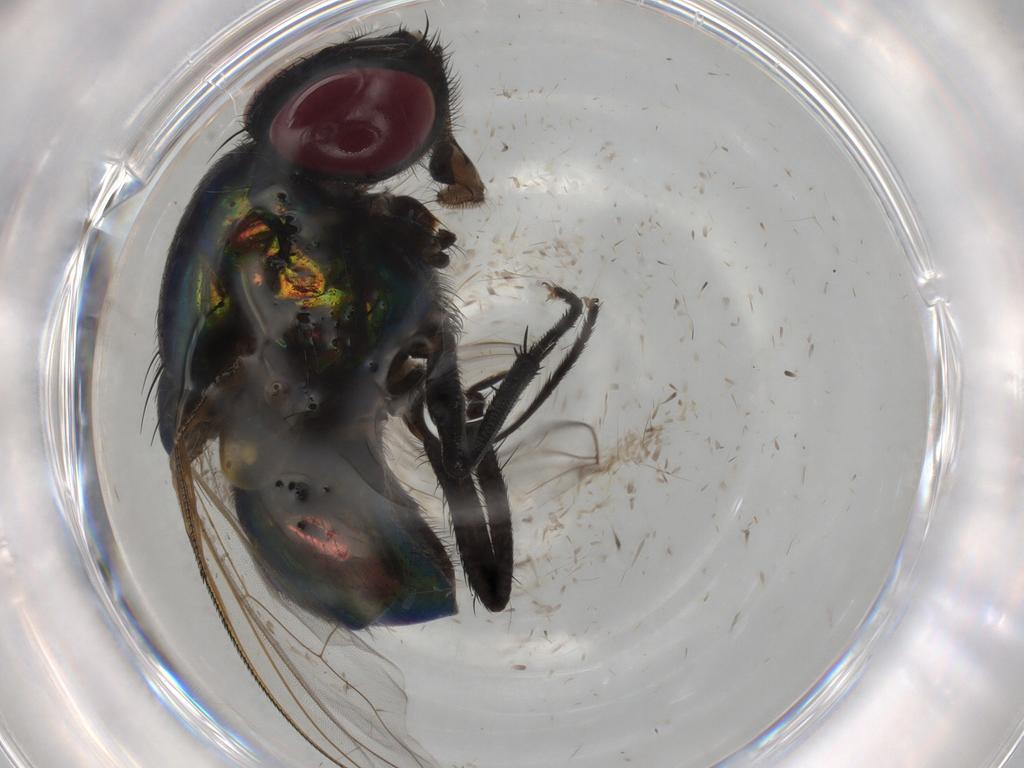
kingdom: Animalia
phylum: Arthropoda
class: Insecta
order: Diptera
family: Muscidae
